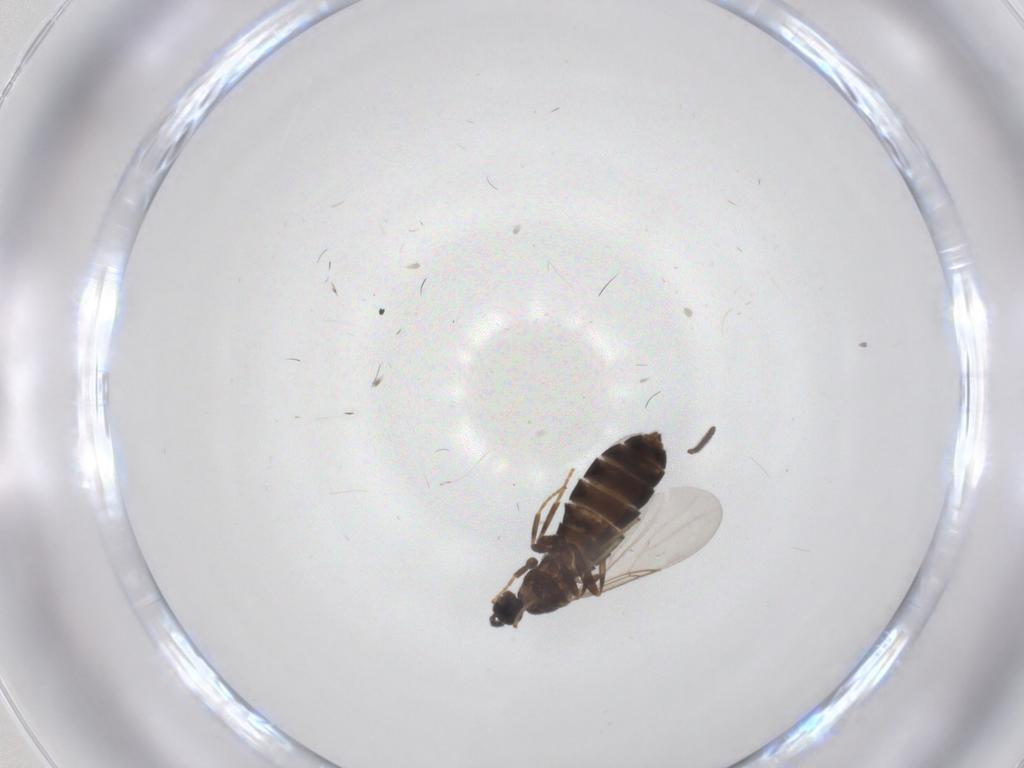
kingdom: Animalia
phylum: Arthropoda
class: Insecta
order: Diptera
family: Scatopsidae
